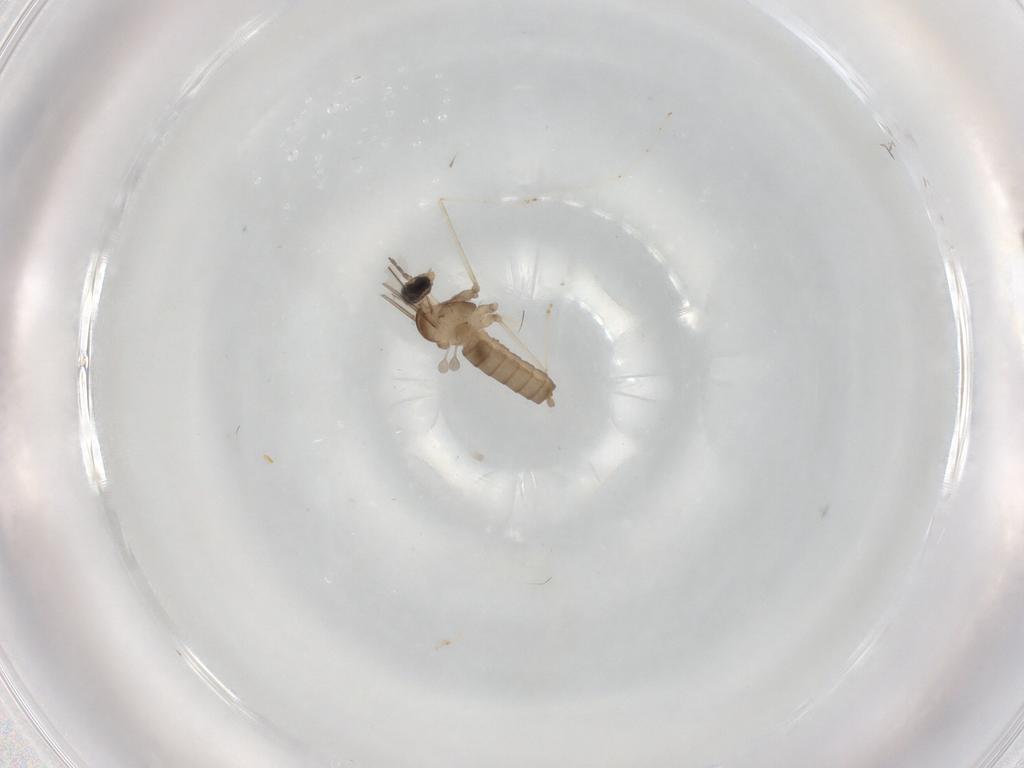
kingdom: Animalia
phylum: Arthropoda
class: Insecta
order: Diptera
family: Cecidomyiidae
